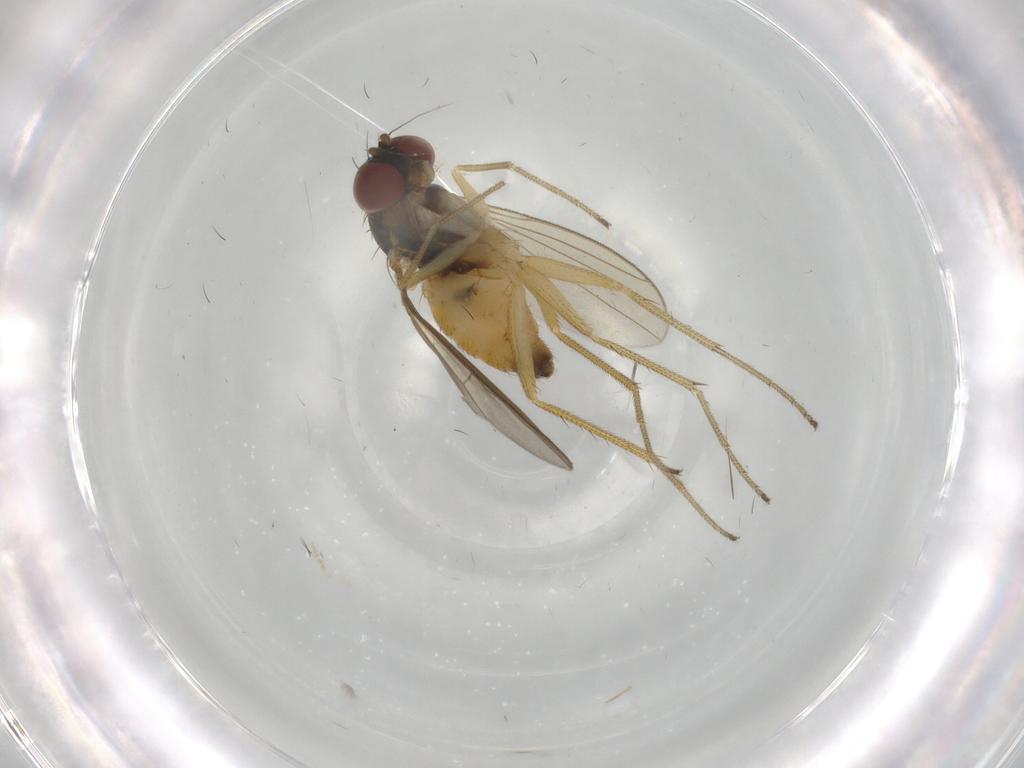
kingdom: Animalia
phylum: Arthropoda
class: Insecta
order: Diptera
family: Dolichopodidae
